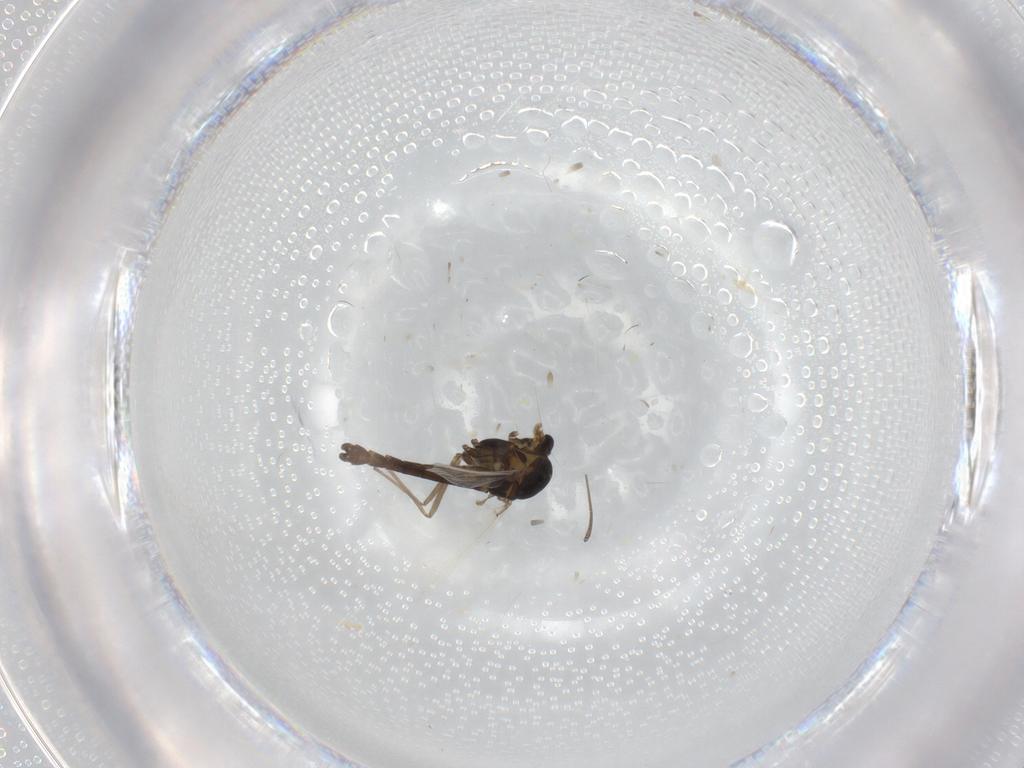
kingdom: Animalia
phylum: Arthropoda
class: Insecta
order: Diptera
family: Chironomidae
